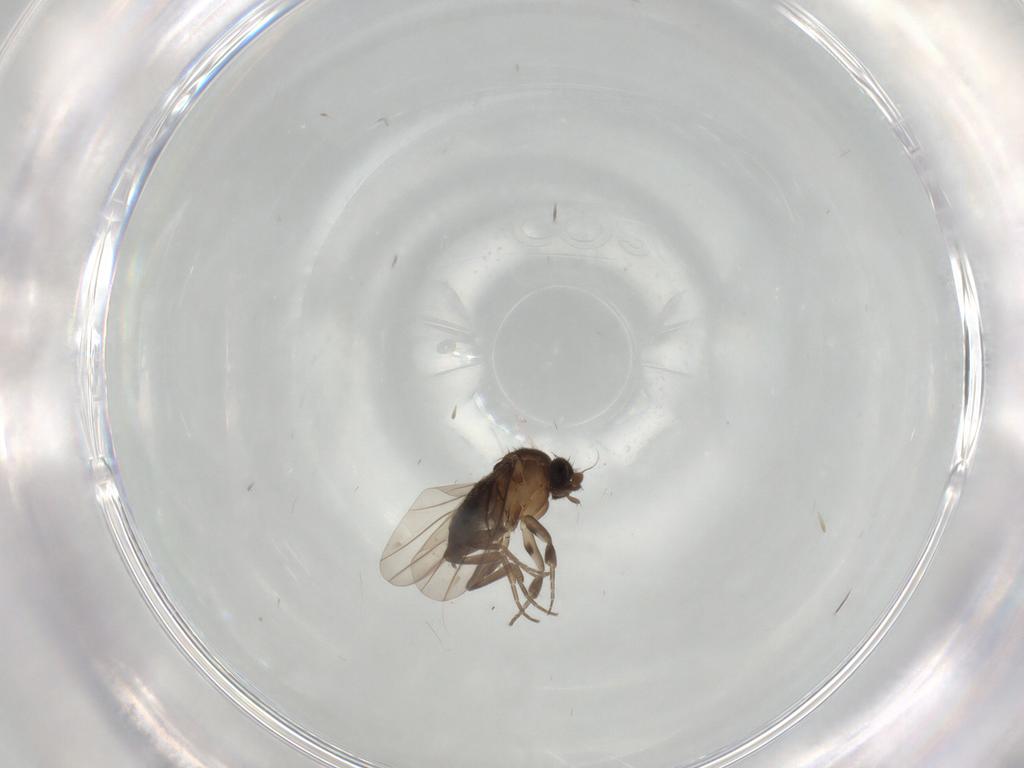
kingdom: Animalia
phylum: Arthropoda
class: Insecta
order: Diptera
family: Phoridae
